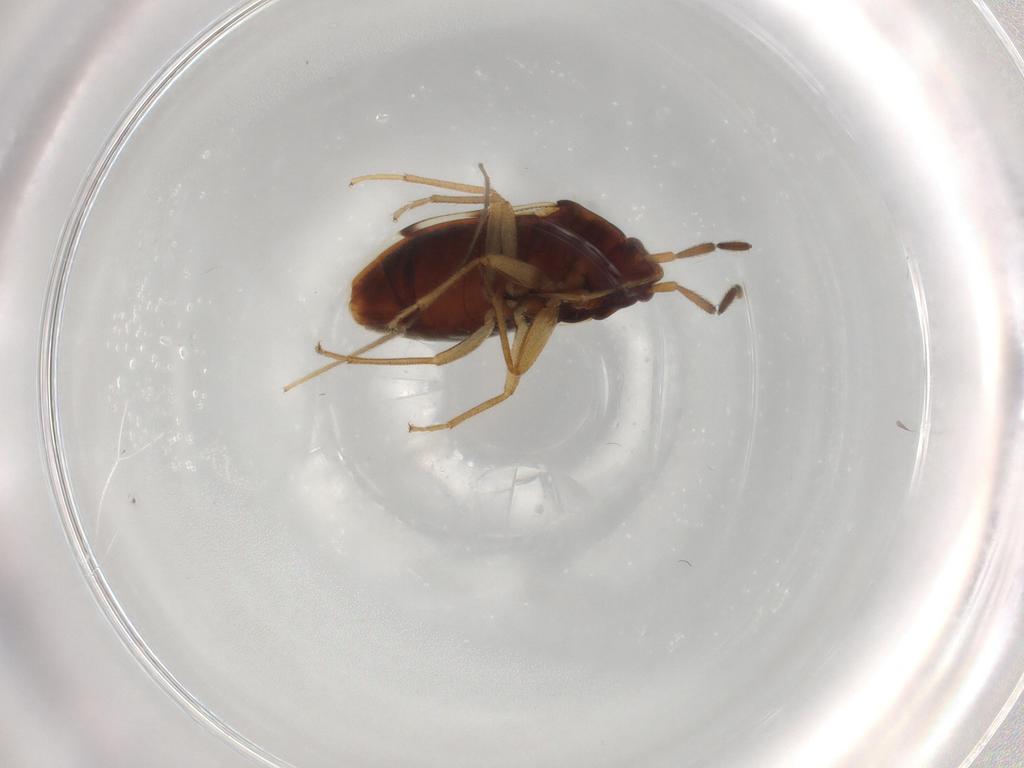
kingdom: Animalia
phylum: Arthropoda
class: Insecta
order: Hemiptera
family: Rhyparochromidae
